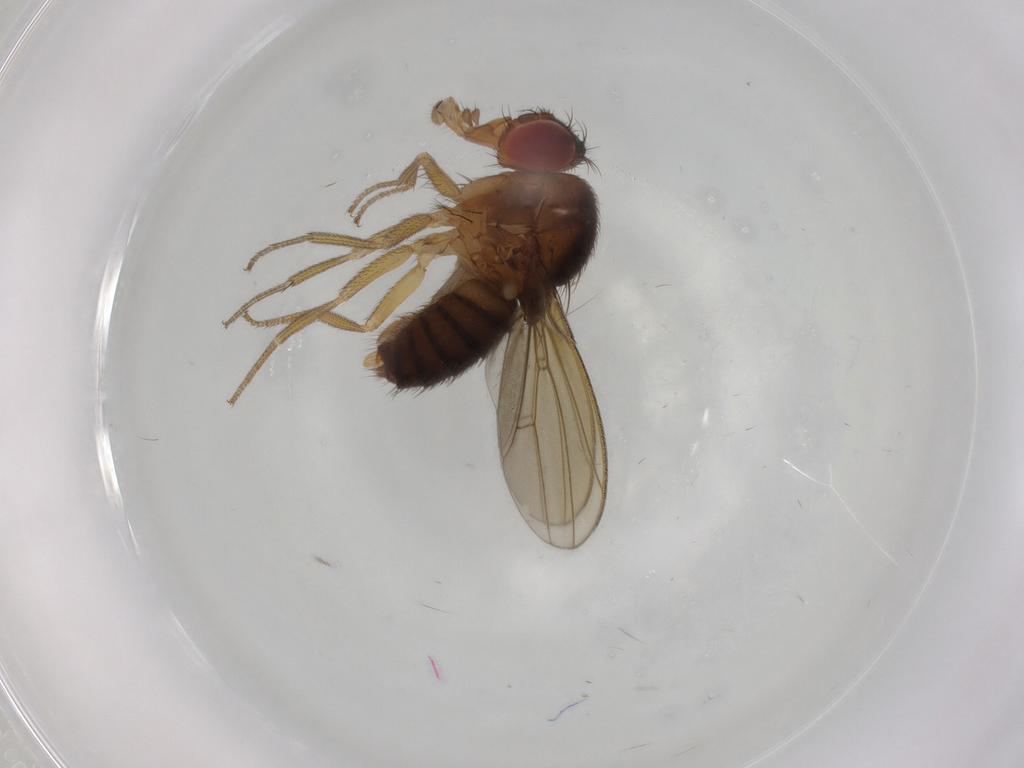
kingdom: Animalia
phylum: Arthropoda
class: Insecta
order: Diptera
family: Drosophilidae
